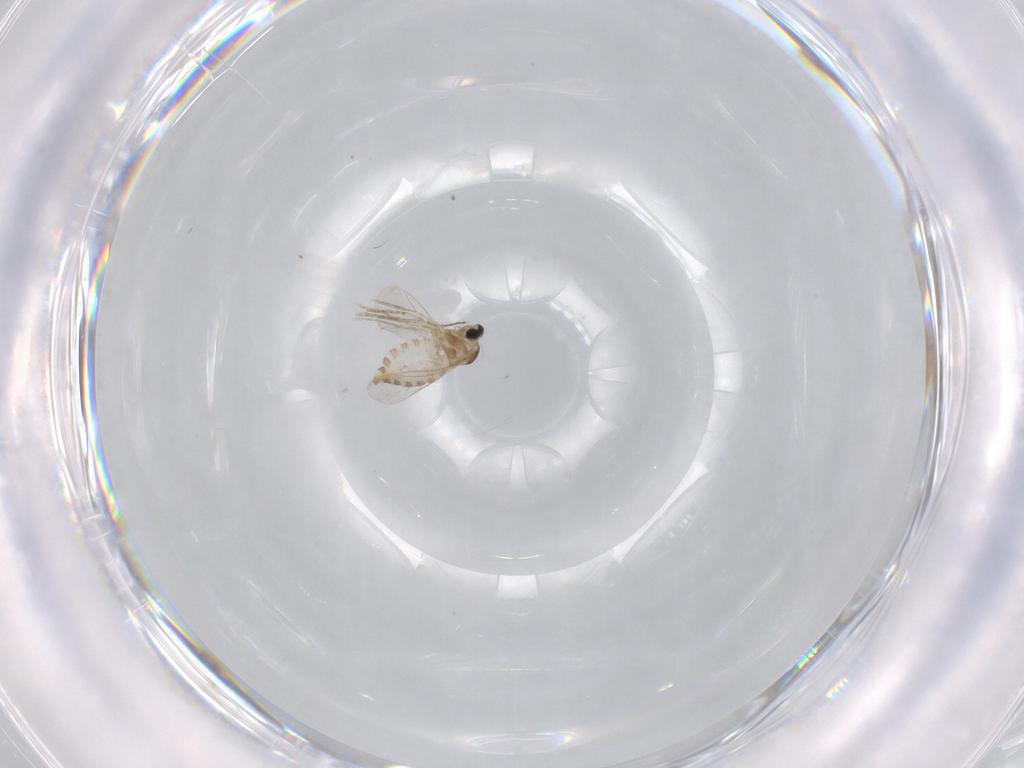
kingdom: Animalia
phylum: Arthropoda
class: Insecta
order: Diptera
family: Cecidomyiidae
